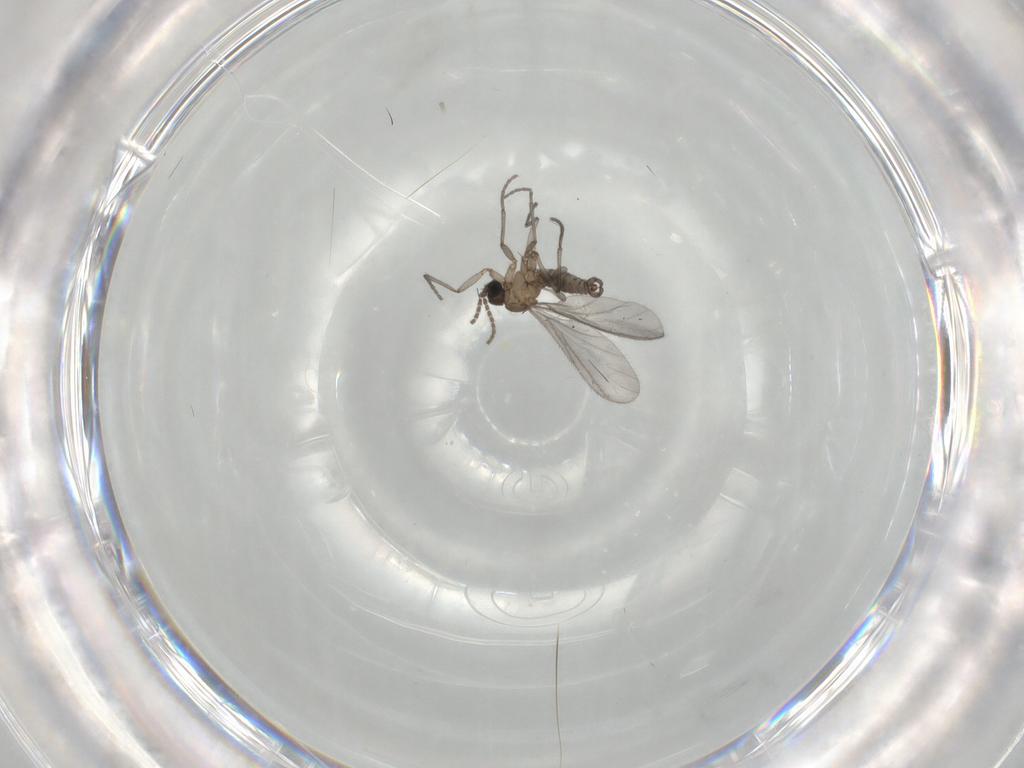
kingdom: Animalia
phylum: Arthropoda
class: Insecta
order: Diptera
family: Sciaridae
